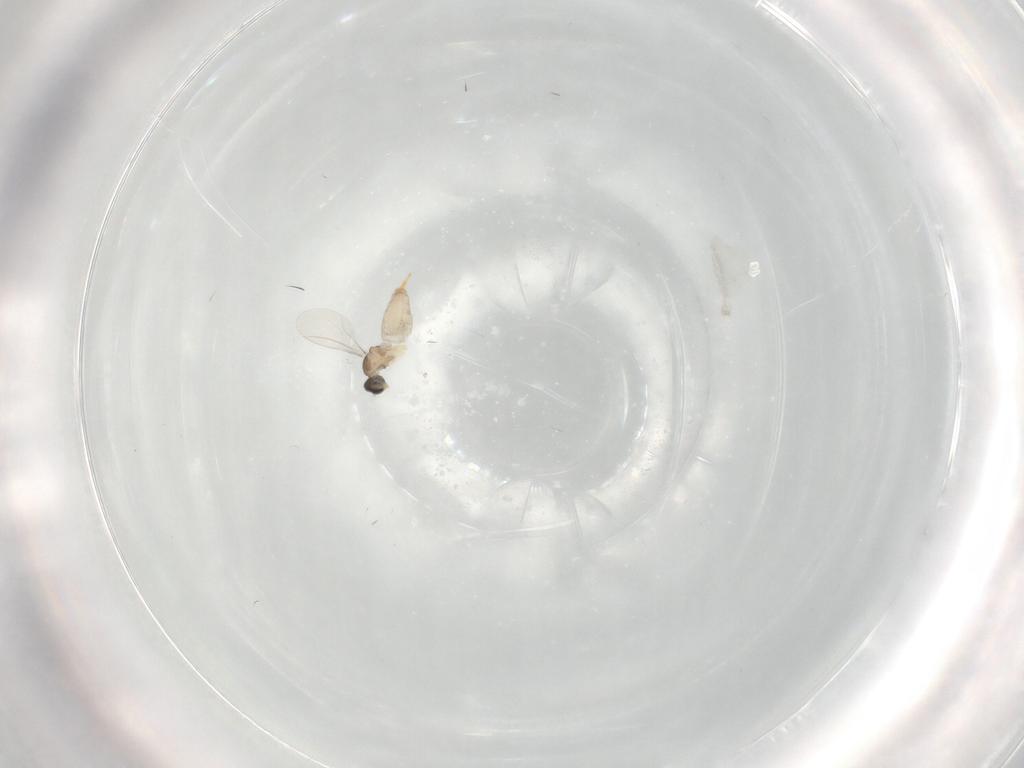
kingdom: Animalia
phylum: Arthropoda
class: Insecta
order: Diptera
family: Cecidomyiidae
